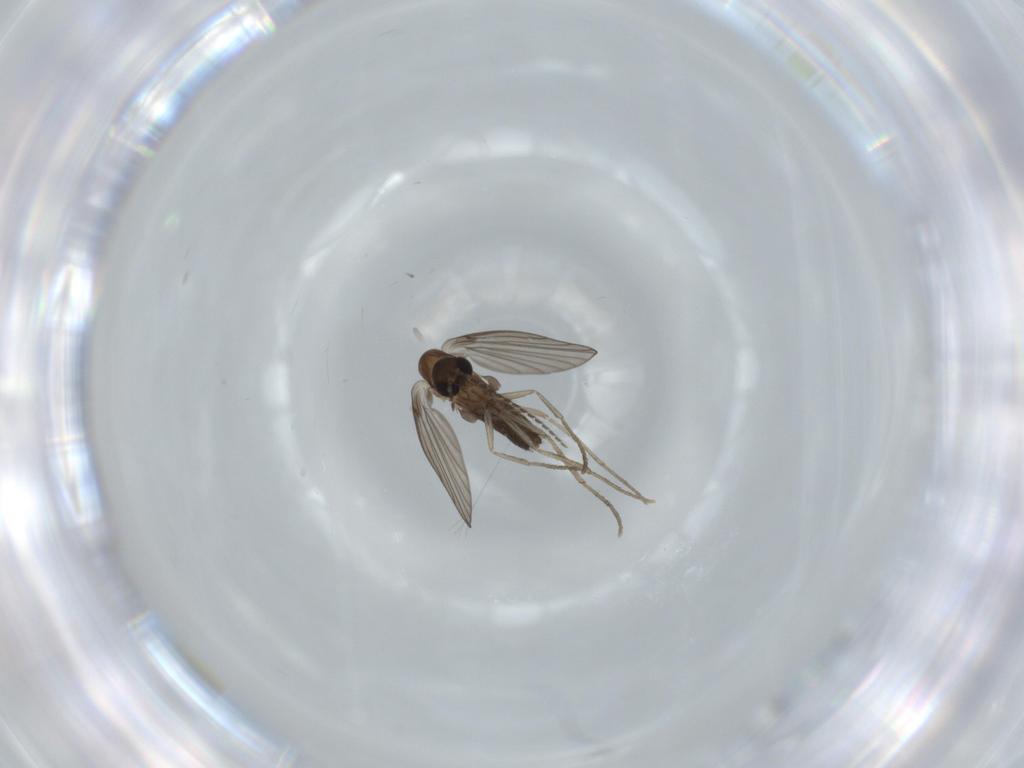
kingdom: Animalia
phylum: Arthropoda
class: Insecta
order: Diptera
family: Psychodidae
